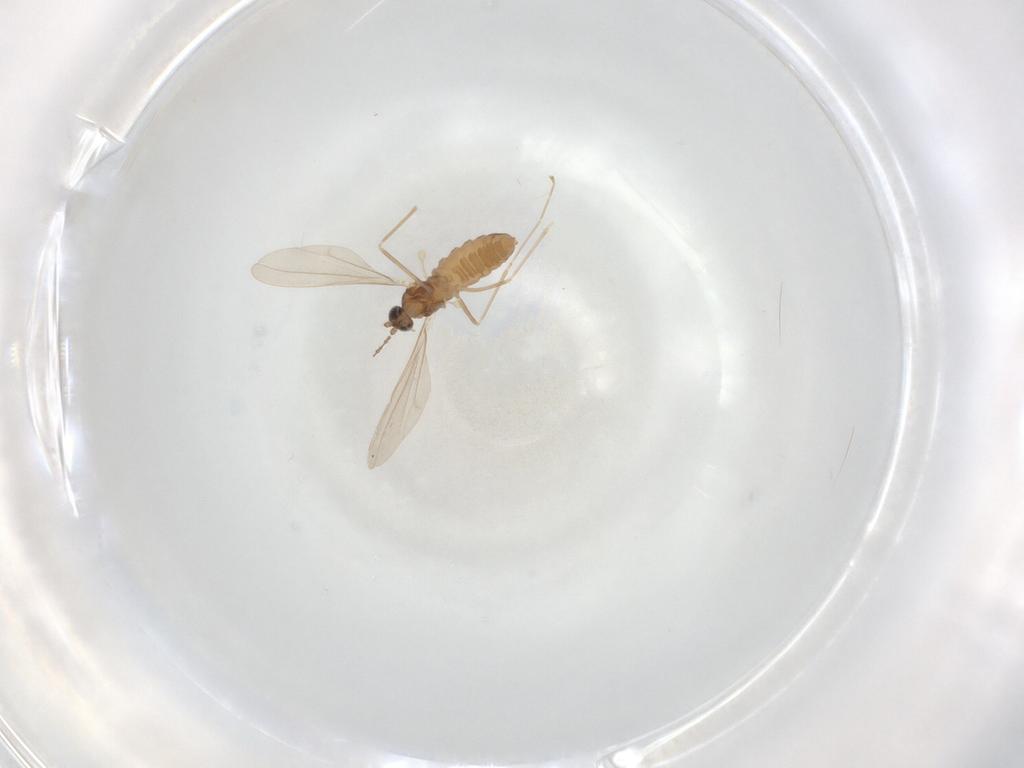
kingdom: Animalia
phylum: Arthropoda
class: Insecta
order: Diptera
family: Cecidomyiidae
